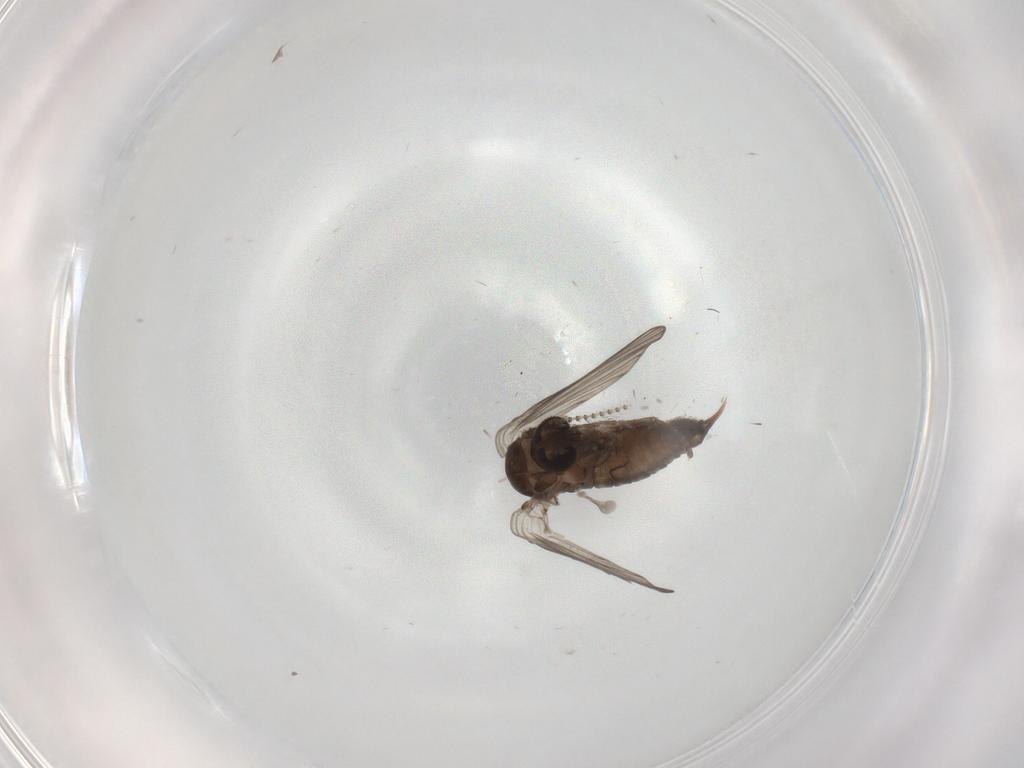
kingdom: Animalia
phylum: Arthropoda
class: Insecta
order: Diptera
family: Psychodidae
